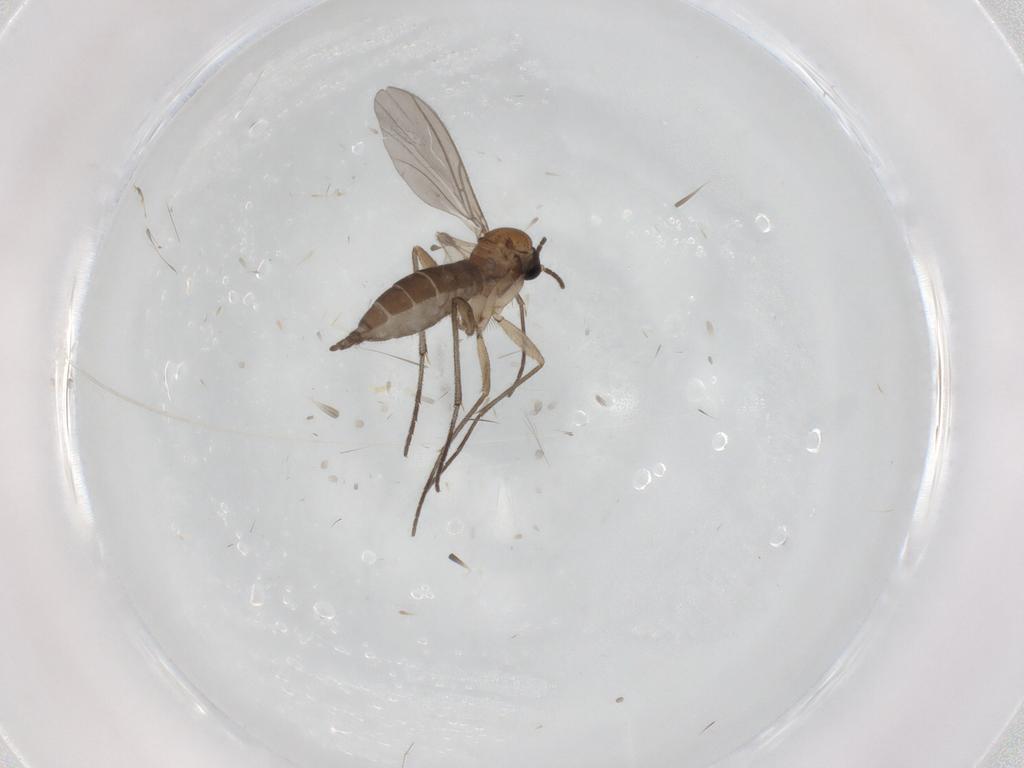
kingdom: Animalia
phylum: Arthropoda
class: Insecta
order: Diptera
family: Sciaridae
